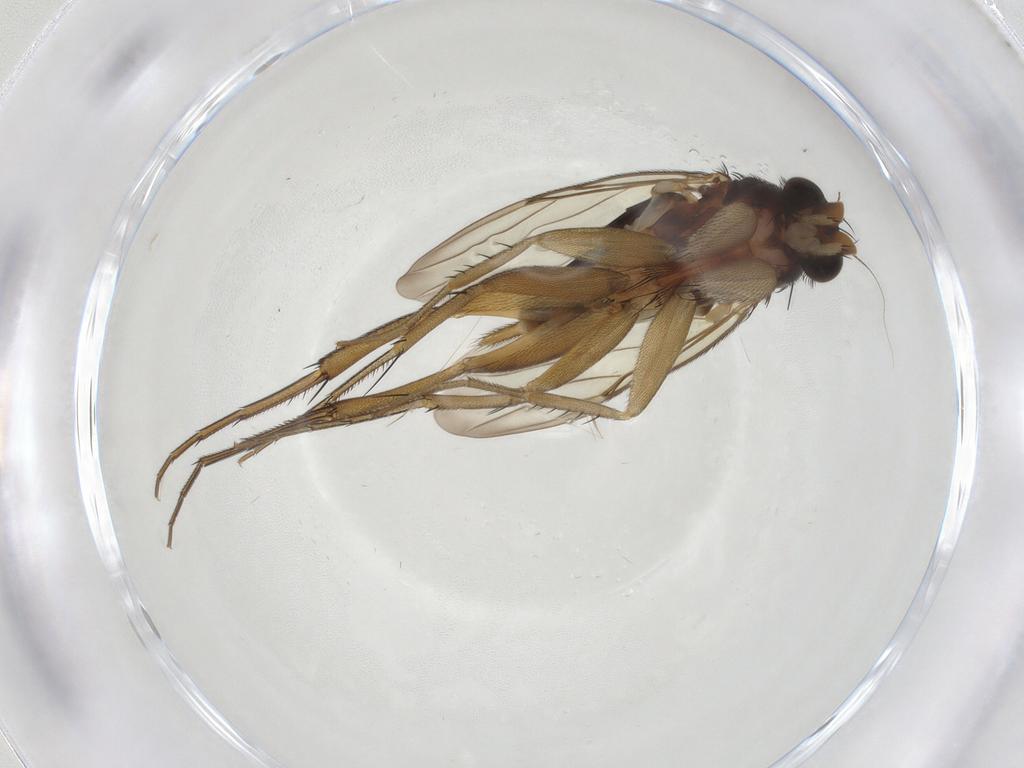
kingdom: Animalia
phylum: Arthropoda
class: Insecta
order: Diptera
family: Phoridae
